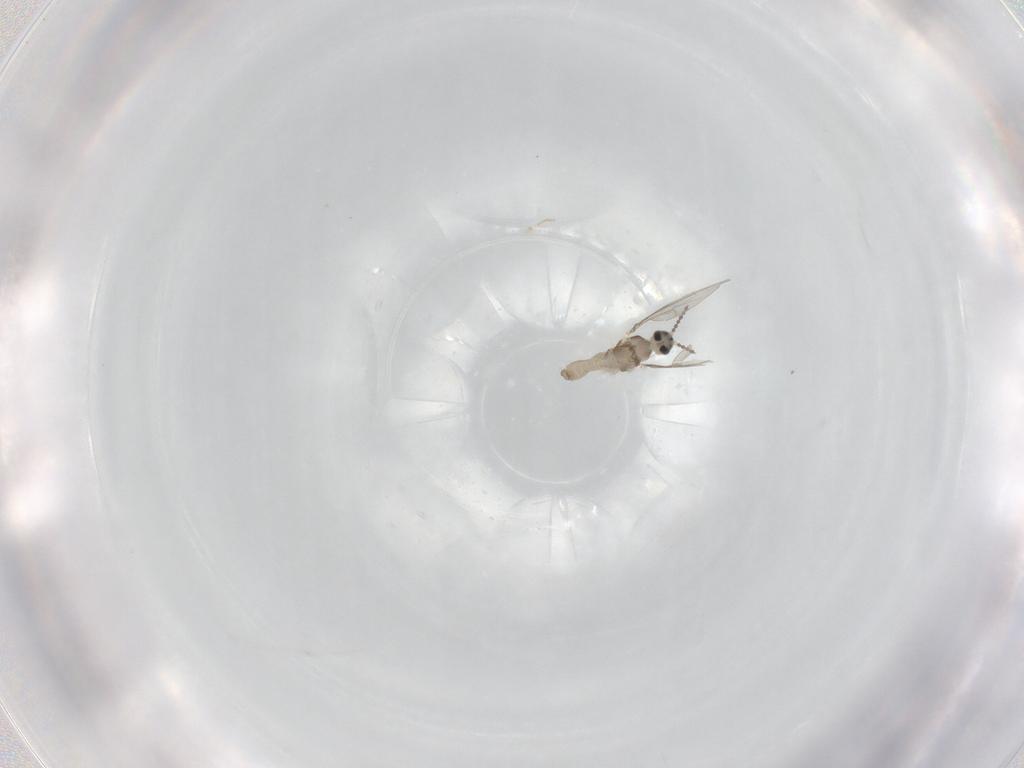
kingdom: Animalia
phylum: Arthropoda
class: Insecta
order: Diptera
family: Cecidomyiidae
